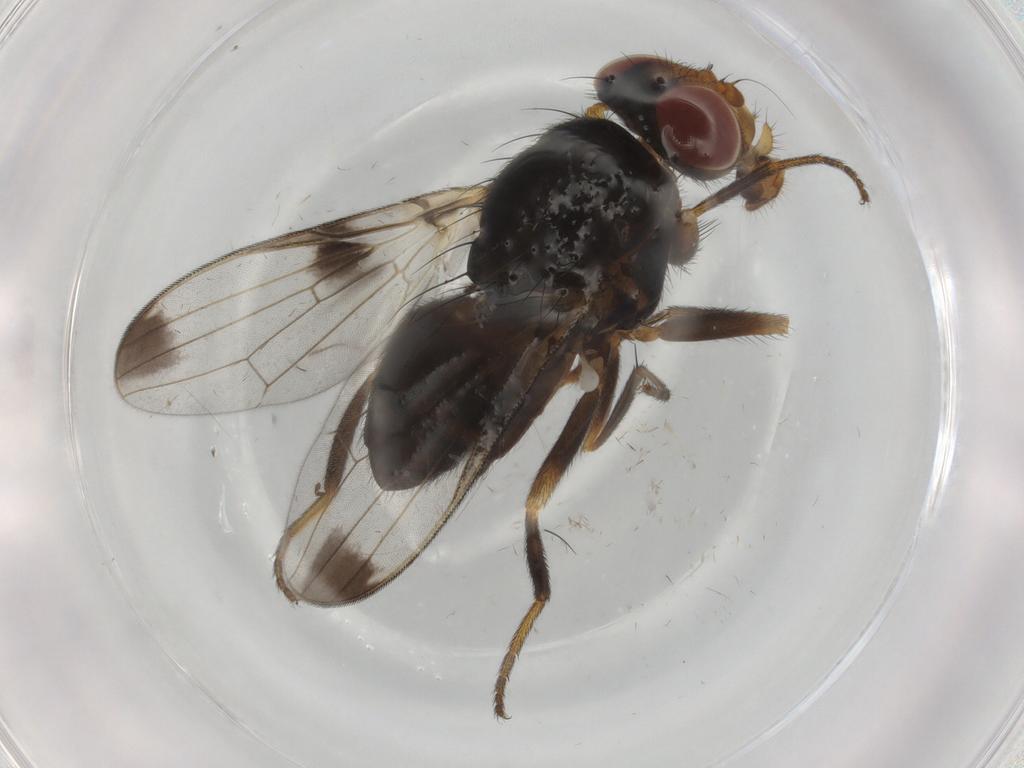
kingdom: Animalia
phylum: Arthropoda
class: Insecta
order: Diptera
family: Ulidiidae
